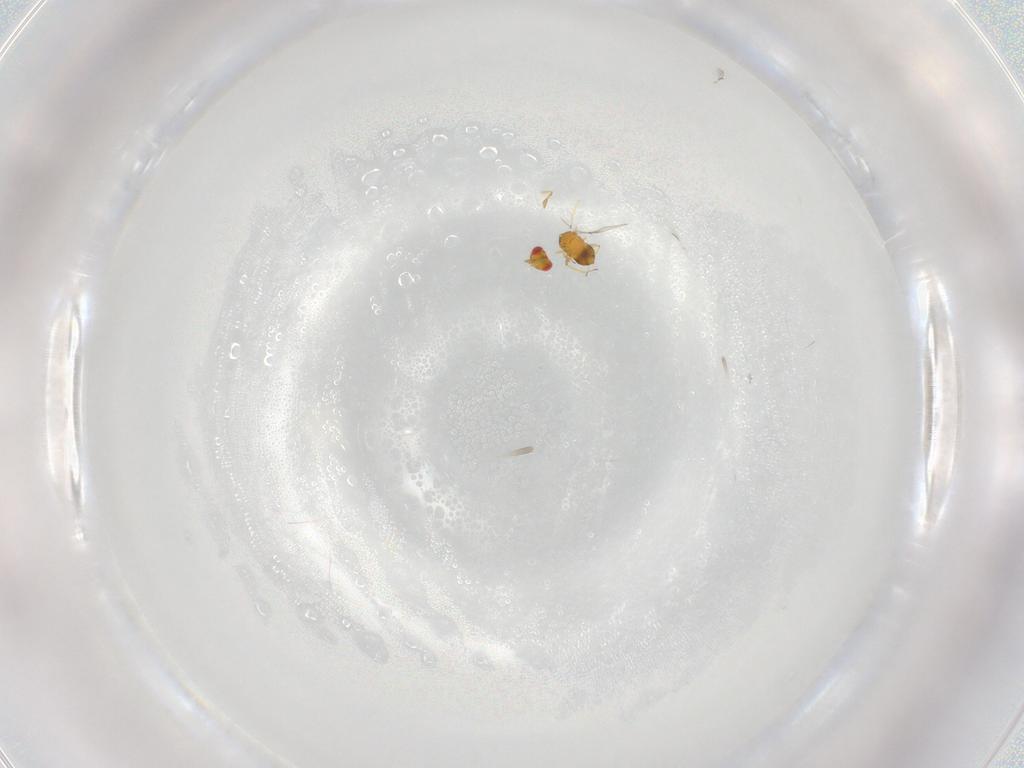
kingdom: Animalia
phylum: Arthropoda
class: Insecta
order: Hymenoptera
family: Trichogrammatidae
